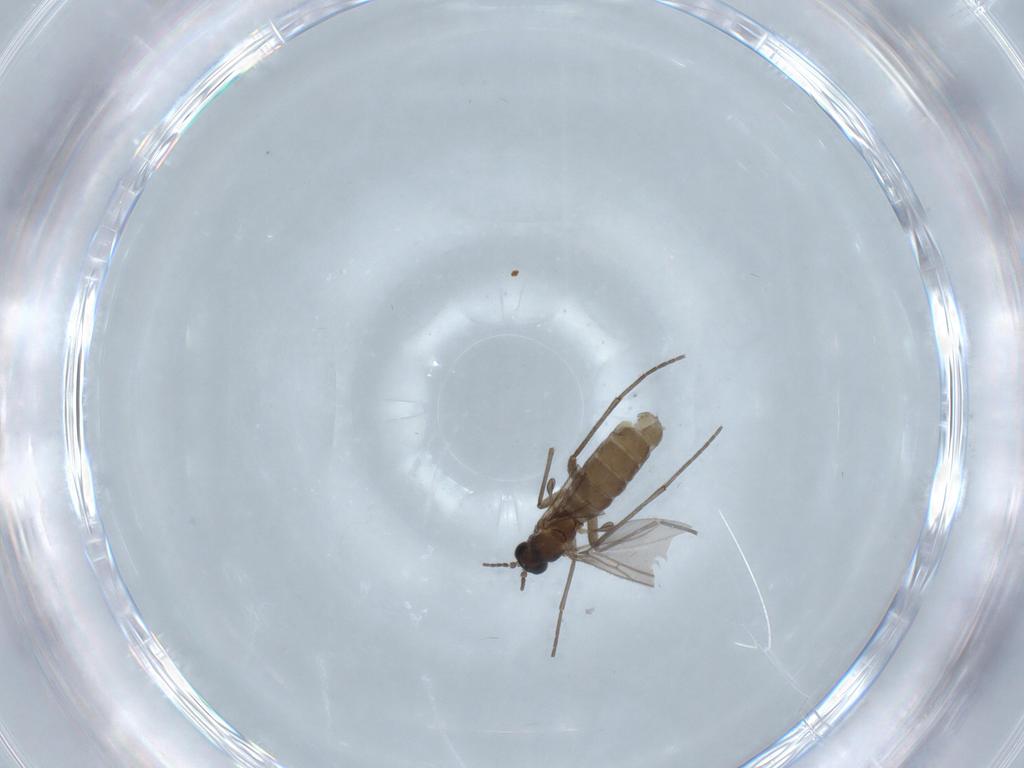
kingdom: Animalia
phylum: Arthropoda
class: Insecta
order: Diptera
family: Sciaridae
